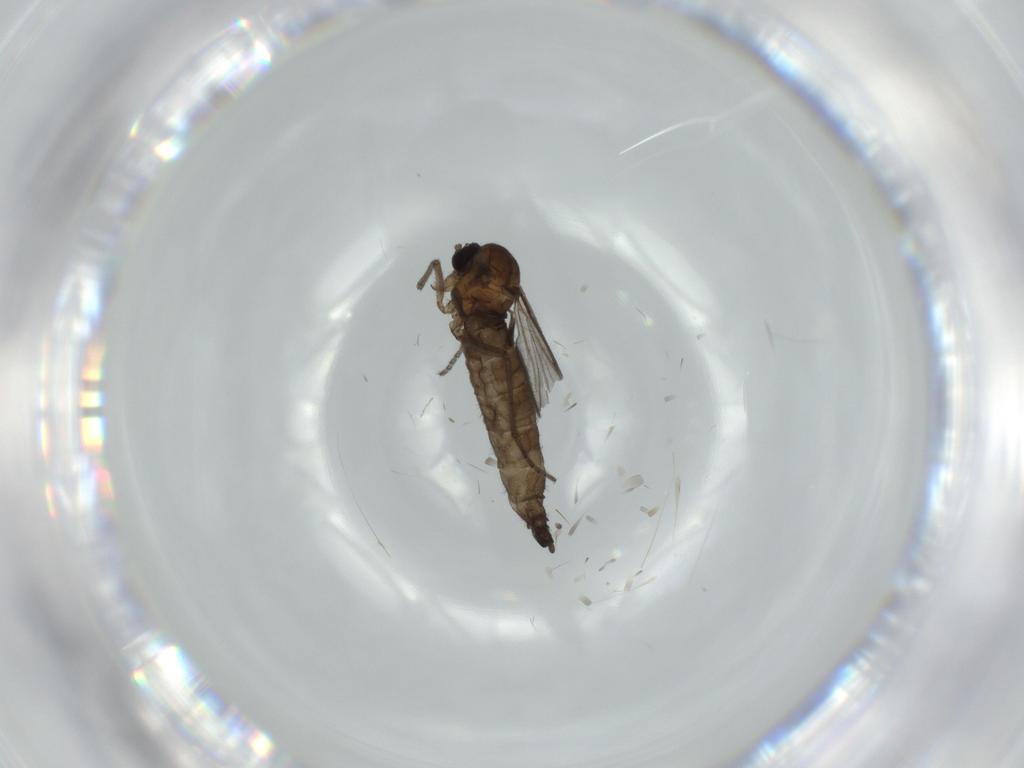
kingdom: Animalia
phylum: Arthropoda
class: Insecta
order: Diptera
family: Sciaridae
